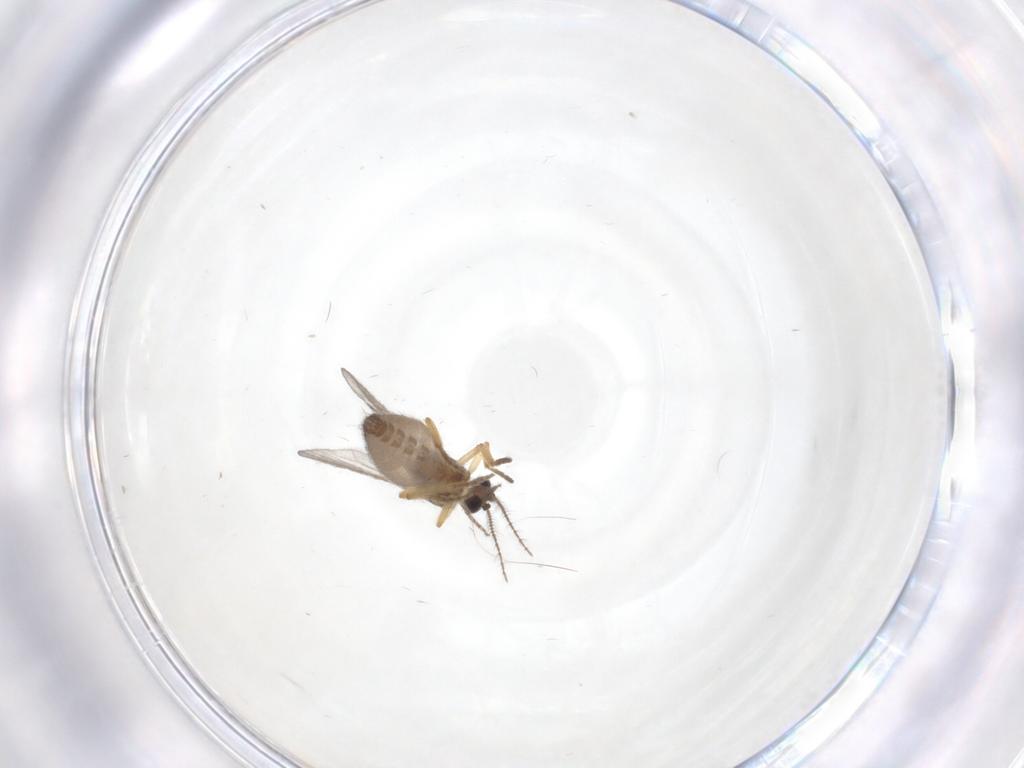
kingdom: Animalia
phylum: Arthropoda
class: Insecta
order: Diptera
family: Ceratopogonidae
